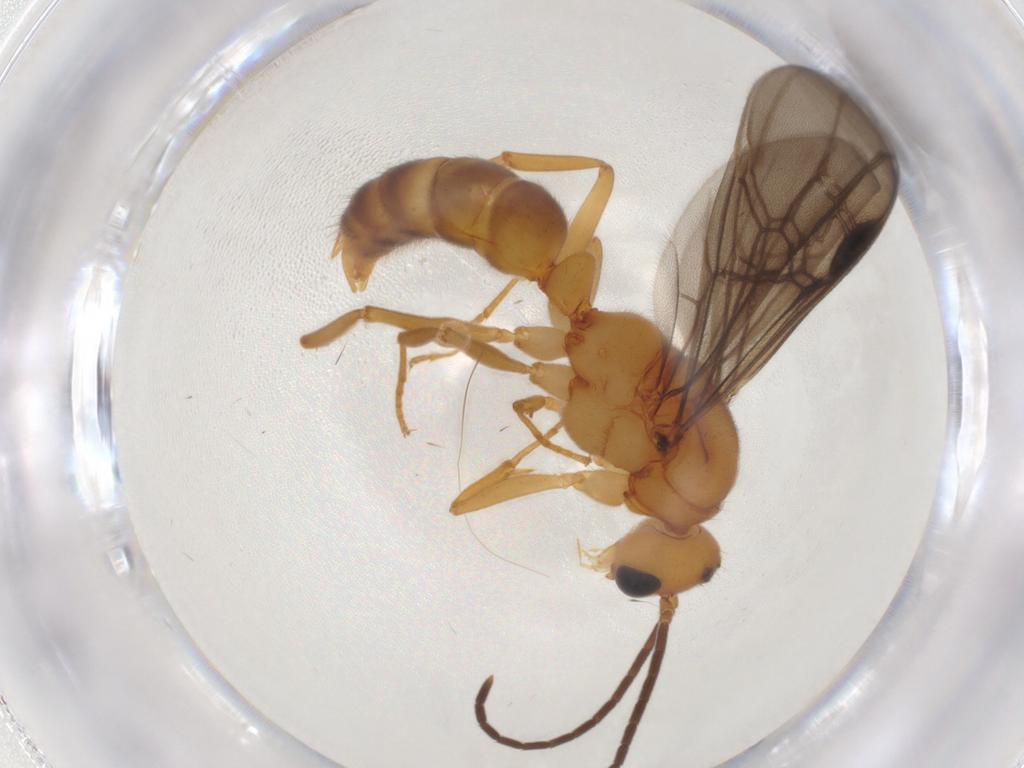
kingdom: Animalia
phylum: Arthropoda
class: Insecta
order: Hymenoptera
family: Formicidae
